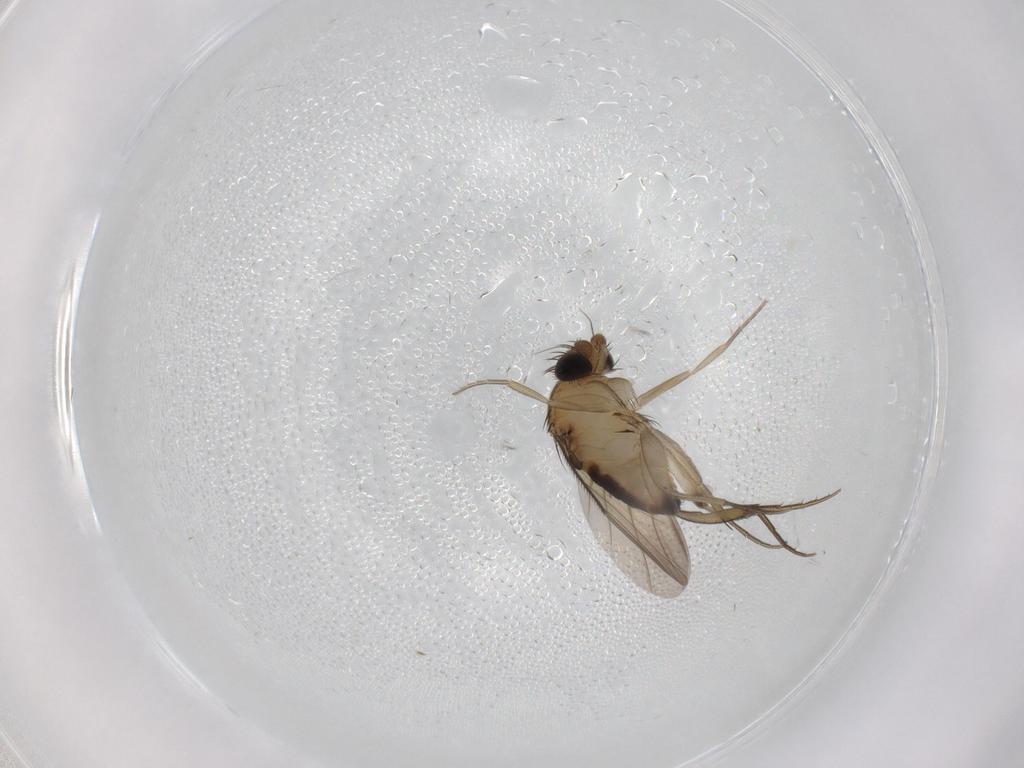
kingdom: Animalia
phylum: Arthropoda
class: Insecta
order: Diptera
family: Phoridae
